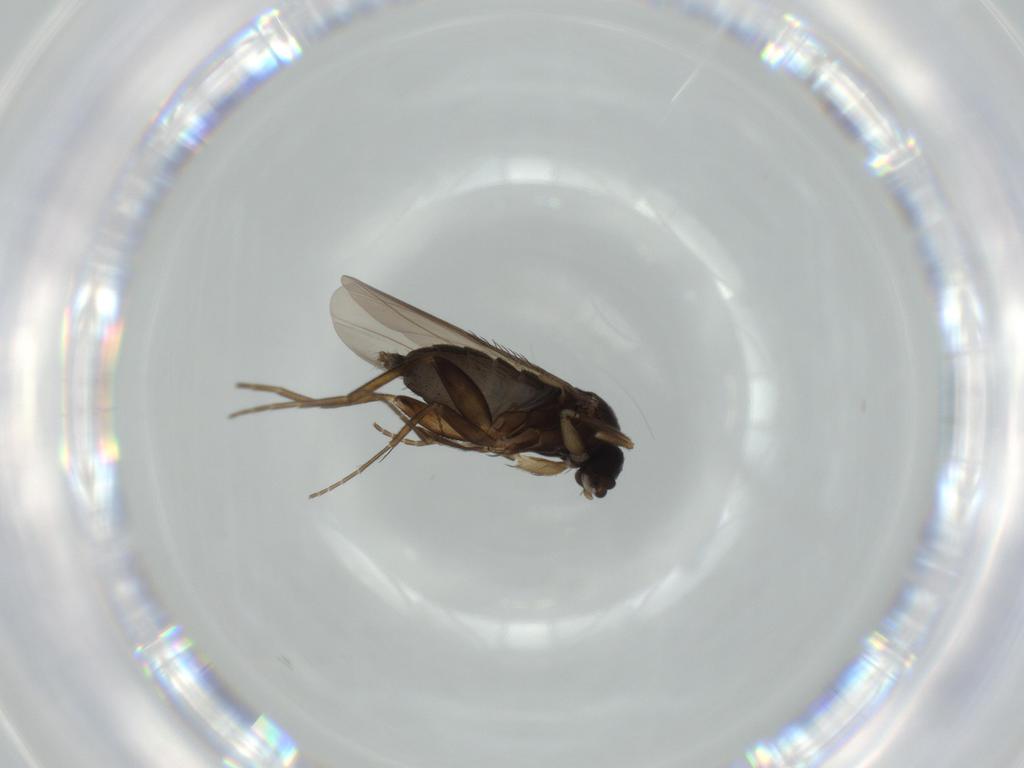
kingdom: Animalia
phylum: Arthropoda
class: Insecta
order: Diptera
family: Phoridae
